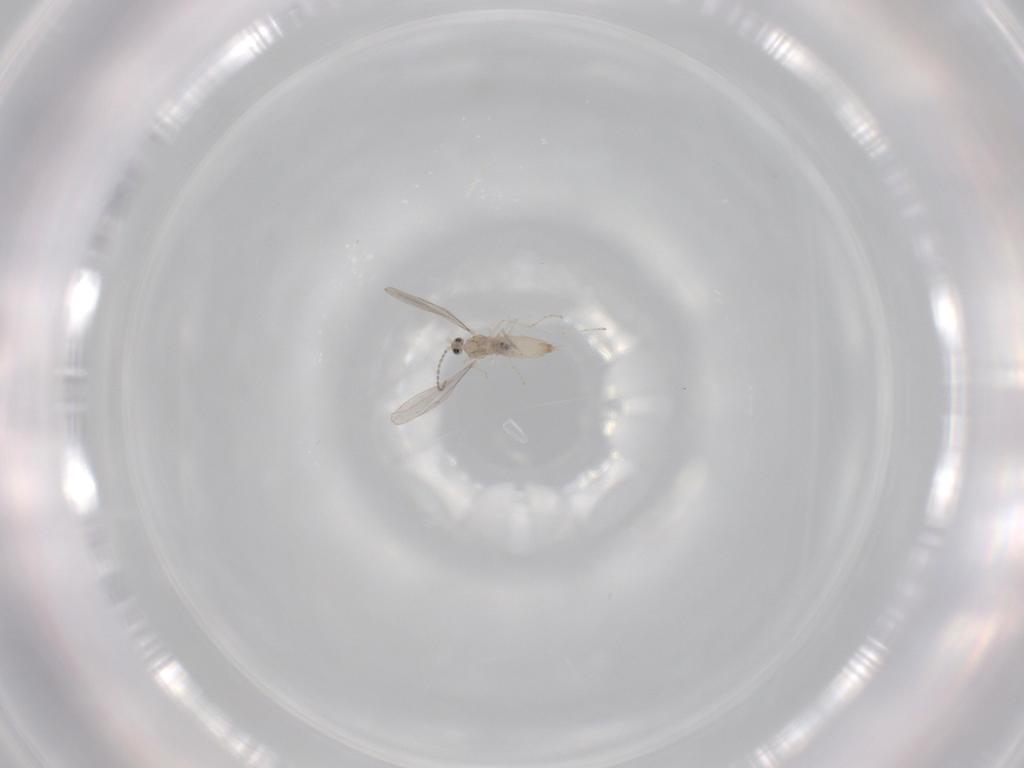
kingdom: Animalia
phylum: Arthropoda
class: Insecta
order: Diptera
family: Cecidomyiidae
